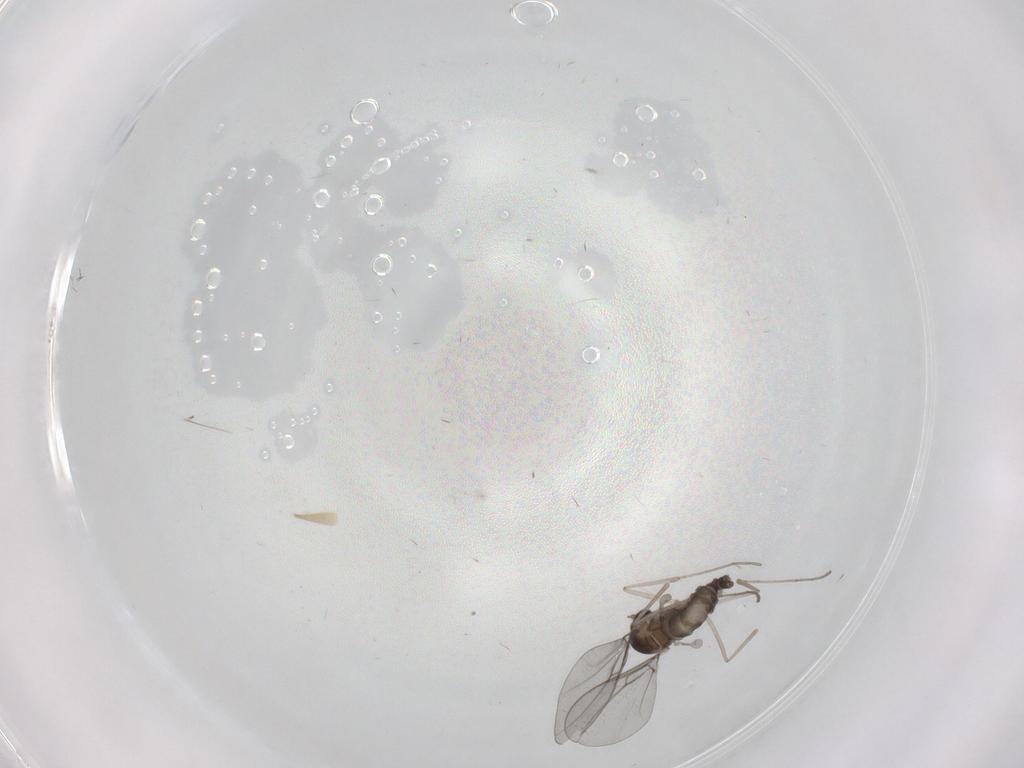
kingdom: Animalia
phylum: Arthropoda
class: Insecta
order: Diptera
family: Cecidomyiidae
